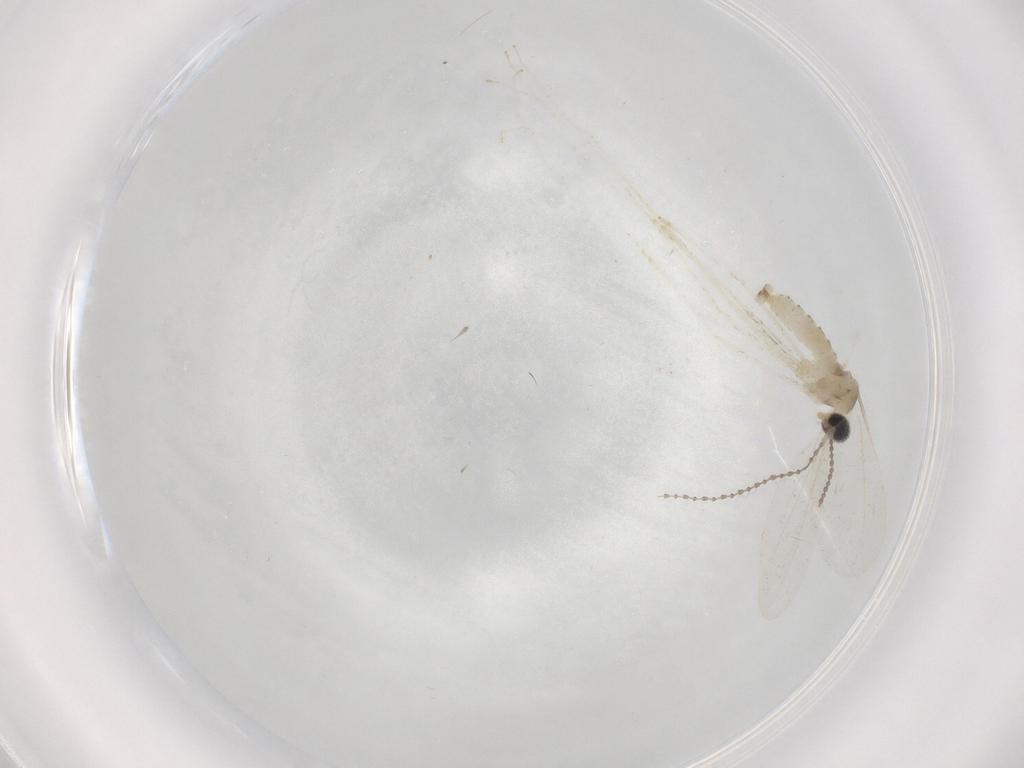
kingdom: Animalia
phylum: Arthropoda
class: Insecta
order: Diptera
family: Cecidomyiidae
